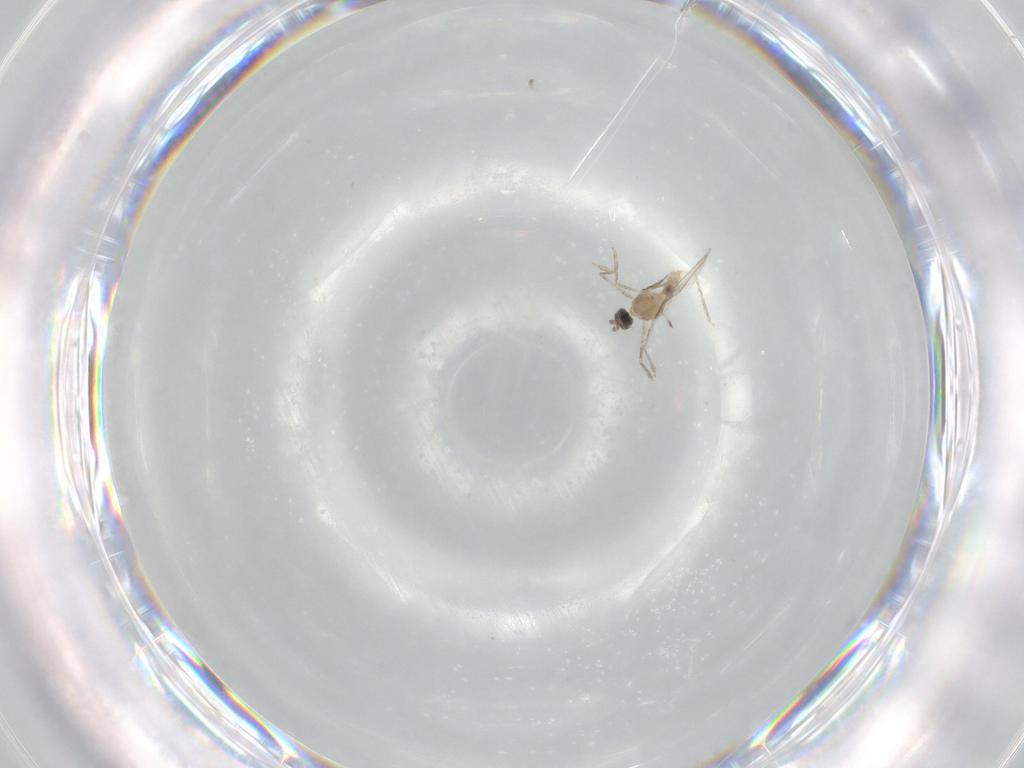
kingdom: Animalia
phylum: Arthropoda
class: Insecta
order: Diptera
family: Cecidomyiidae
